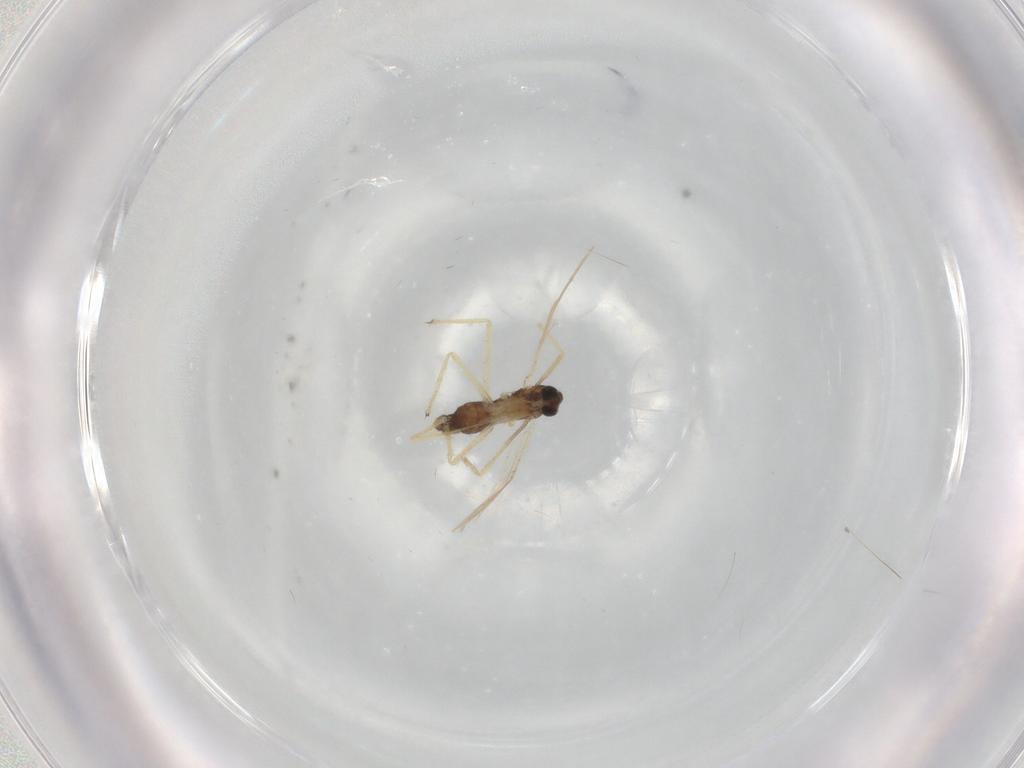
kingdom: Animalia
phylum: Arthropoda
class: Insecta
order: Diptera
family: Chironomidae
